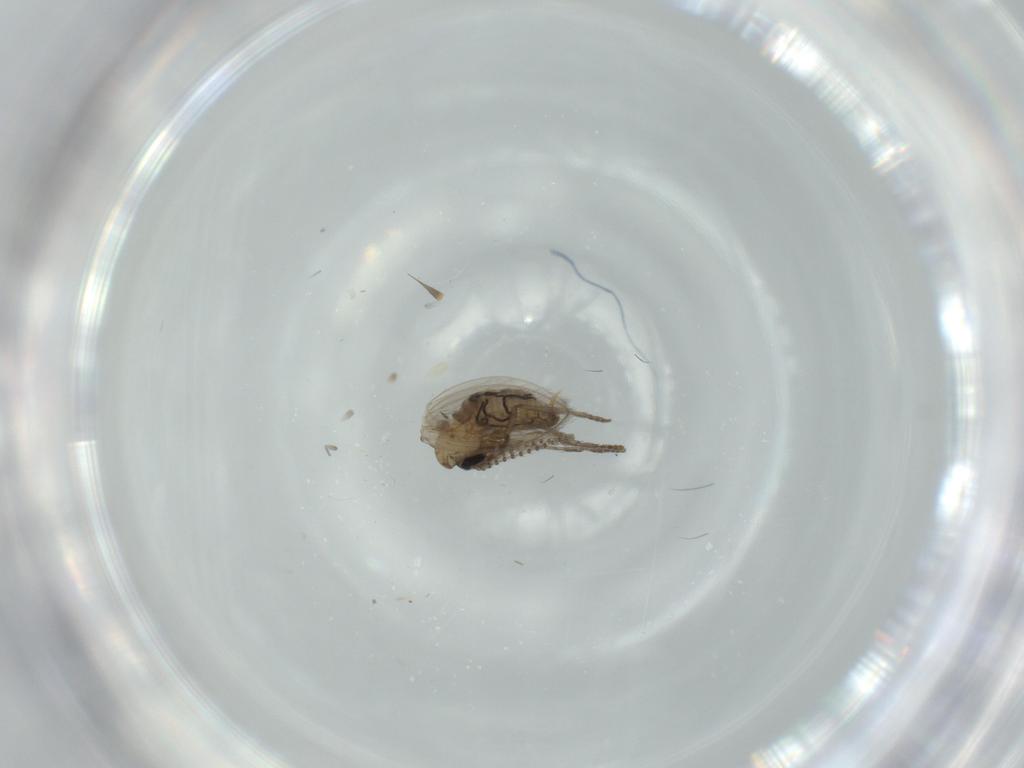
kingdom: Animalia
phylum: Arthropoda
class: Insecta
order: Diptera
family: Psychodidae
